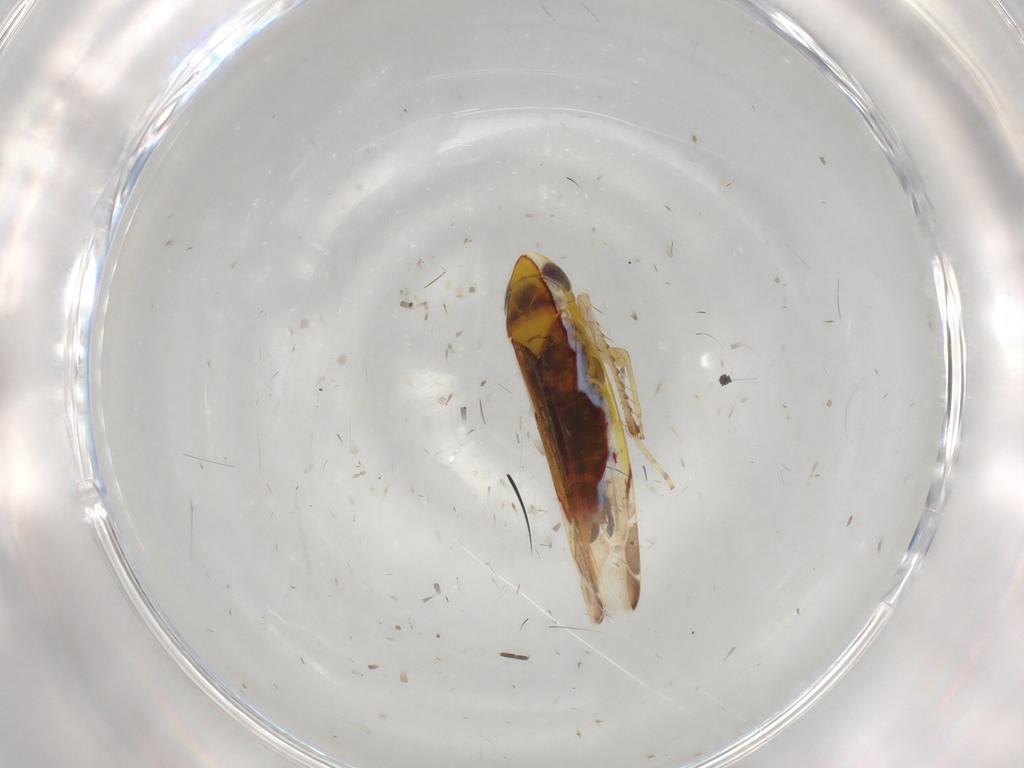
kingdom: Animalia
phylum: Arthropoda
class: Insecta
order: Hemiptera
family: Cicadellidae
